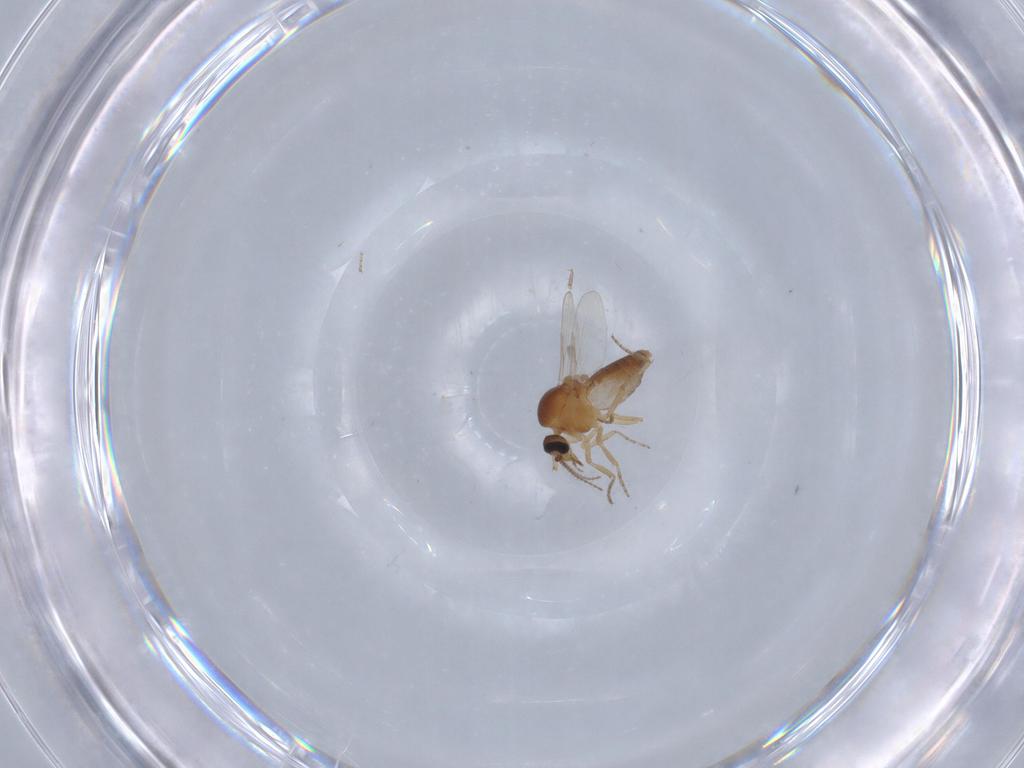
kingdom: Animalia
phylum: Arthropoda
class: Insecta
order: Diptera
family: Ceratopogonidae
